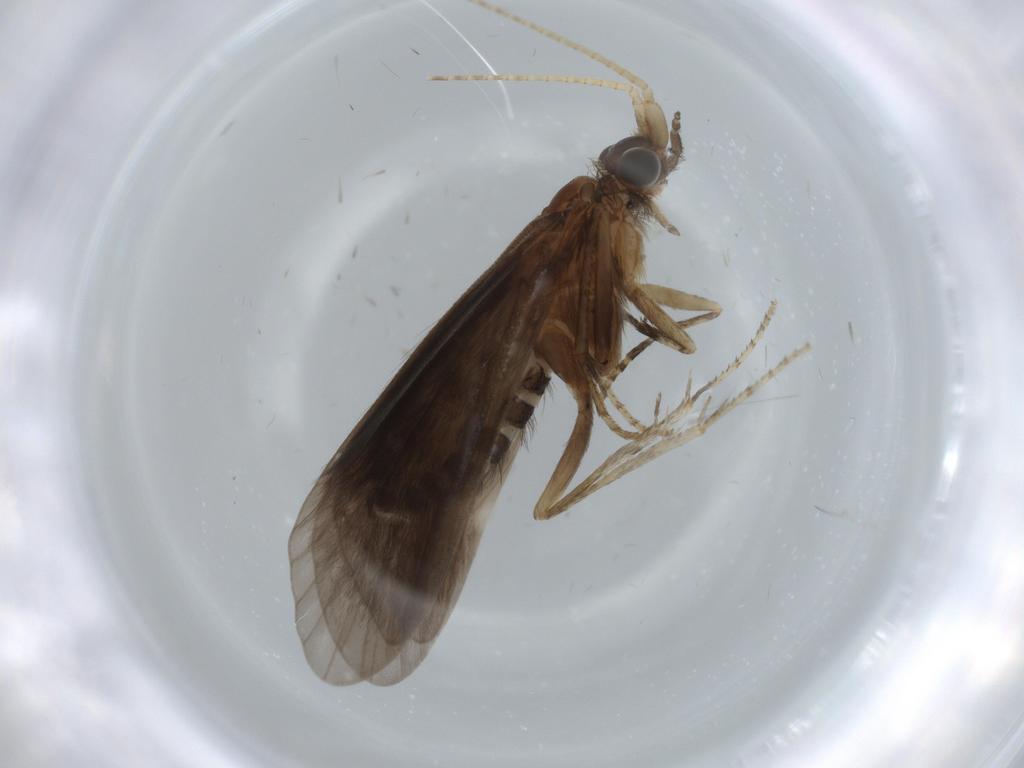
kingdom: Animalia
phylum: Arthropoda
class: Insecta
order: Trichoptera
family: Helicopsychidae
